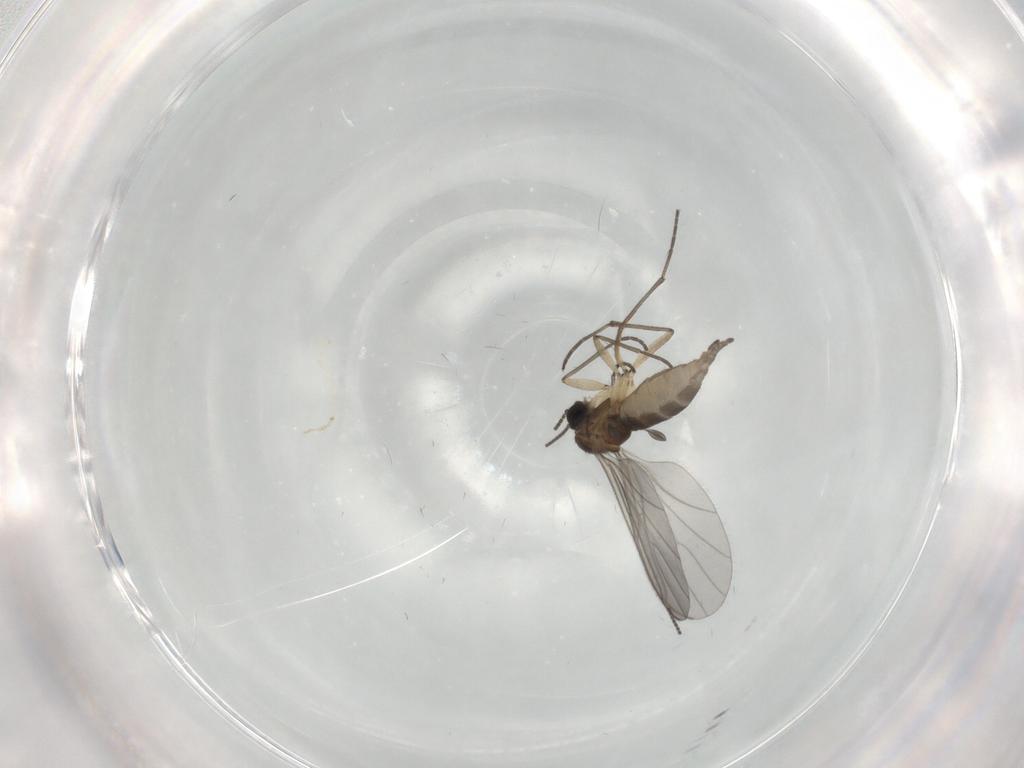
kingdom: Animalia
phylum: Arthropoda
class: Insecta
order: Diptera
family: Sciaridae
